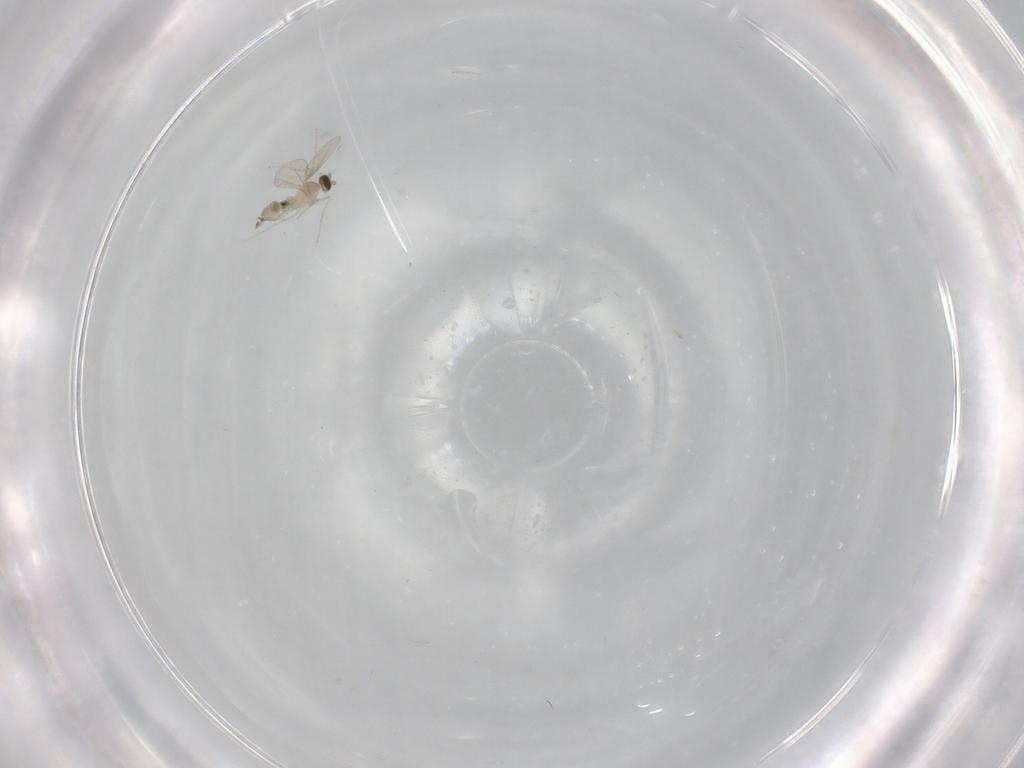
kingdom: Animalia
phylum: Arthropoda
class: Insecta
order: Diptera
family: Cecidomyiidae
